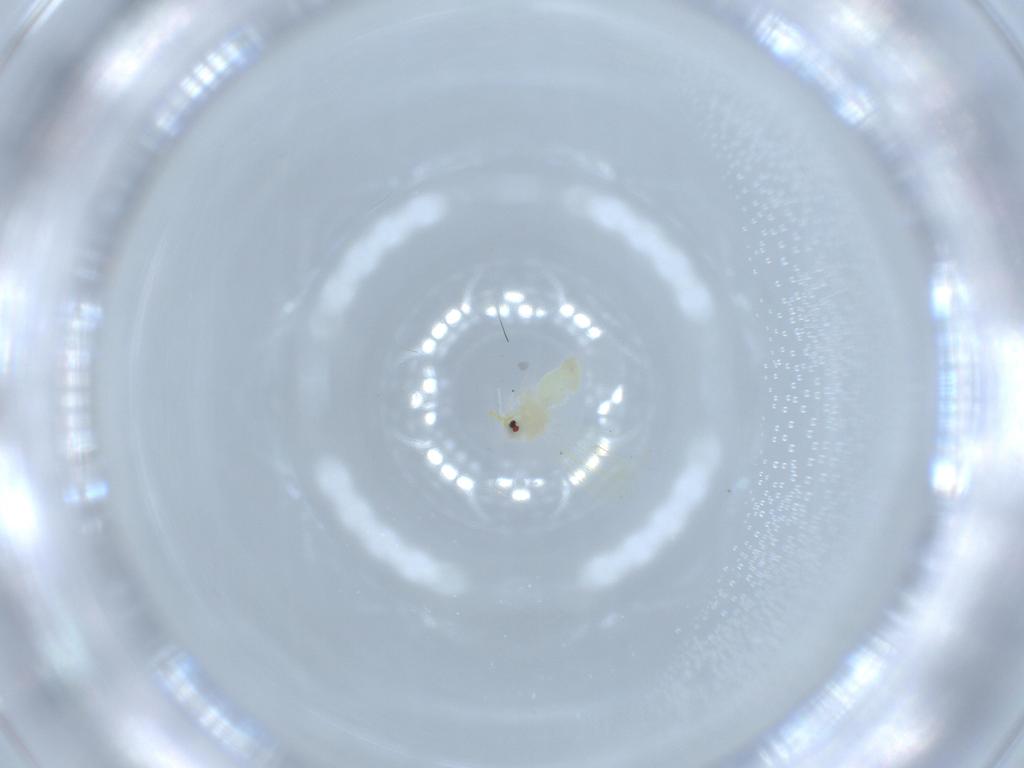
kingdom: Animalia
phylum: Arthropoda
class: Insecta
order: Hemiptera
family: Aleyrodidae
